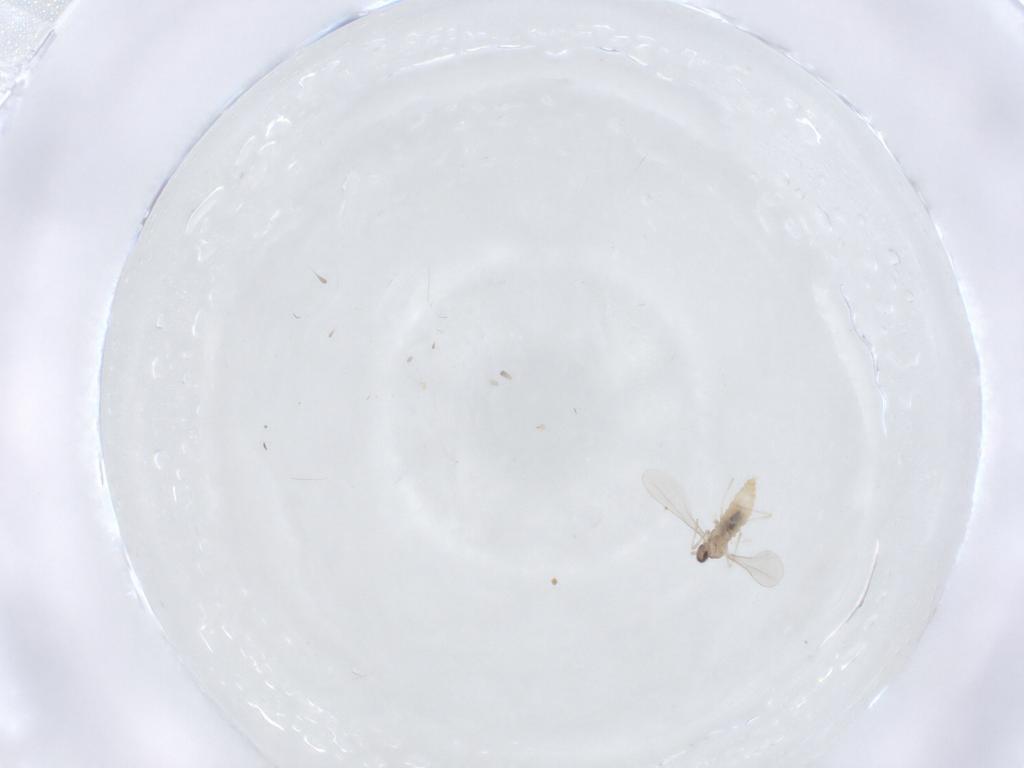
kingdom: Animalia
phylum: Arthropoda
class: Insecta
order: Diptera
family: Cecidomyiidae
